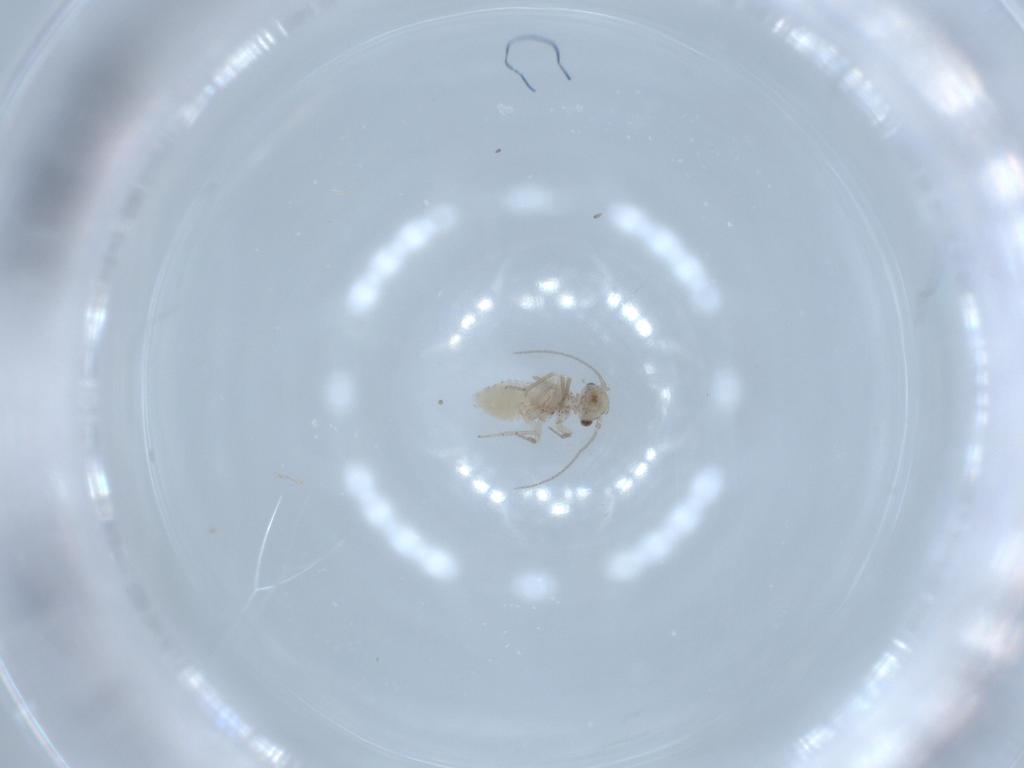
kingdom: Animalia
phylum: Arthropoda
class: Insecta
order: Psocodea
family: Lachesillidae
